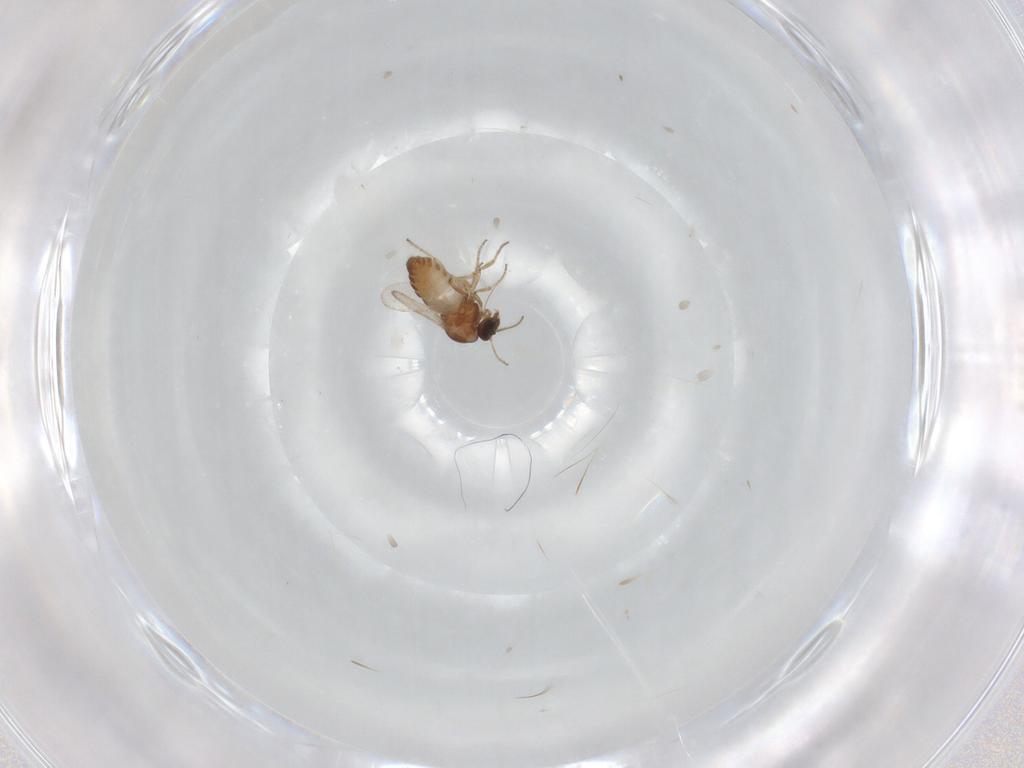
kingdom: Animalia
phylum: Arthropoda
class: Insecta
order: Diptera
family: Ceratopogonidae
